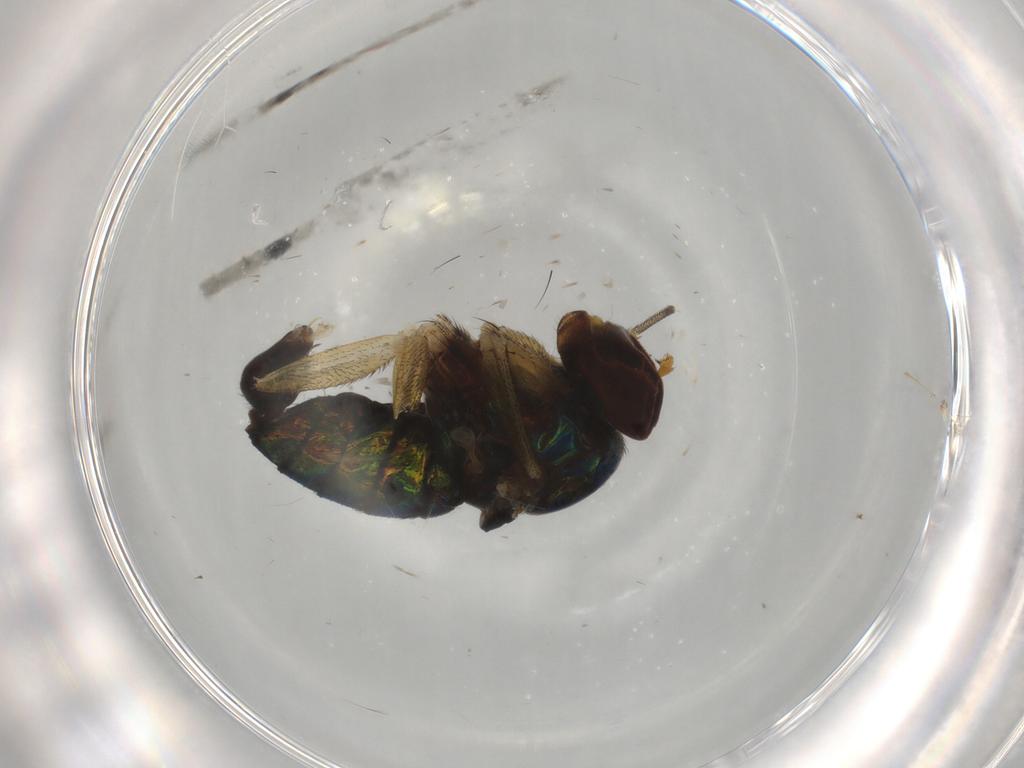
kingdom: Animalia
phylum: Arthropoda
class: Insecta
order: Diptera
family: Dolichopodidae
